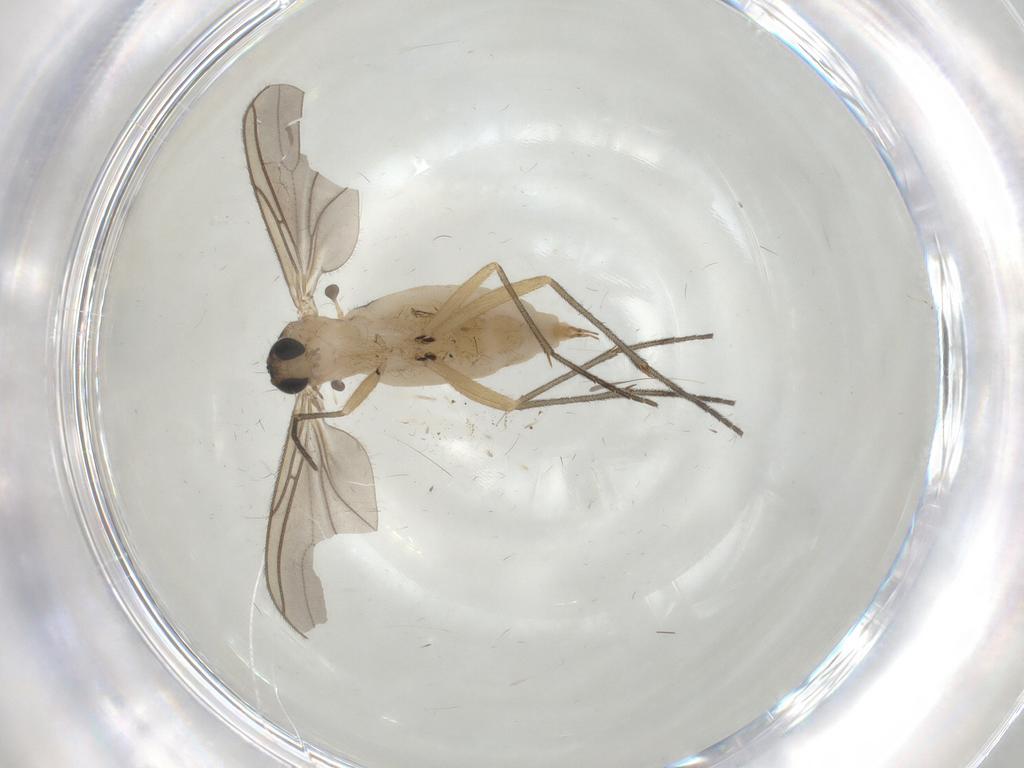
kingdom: Animalia
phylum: Arthropoda
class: Insecta
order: Diptera
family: Sciaridae
